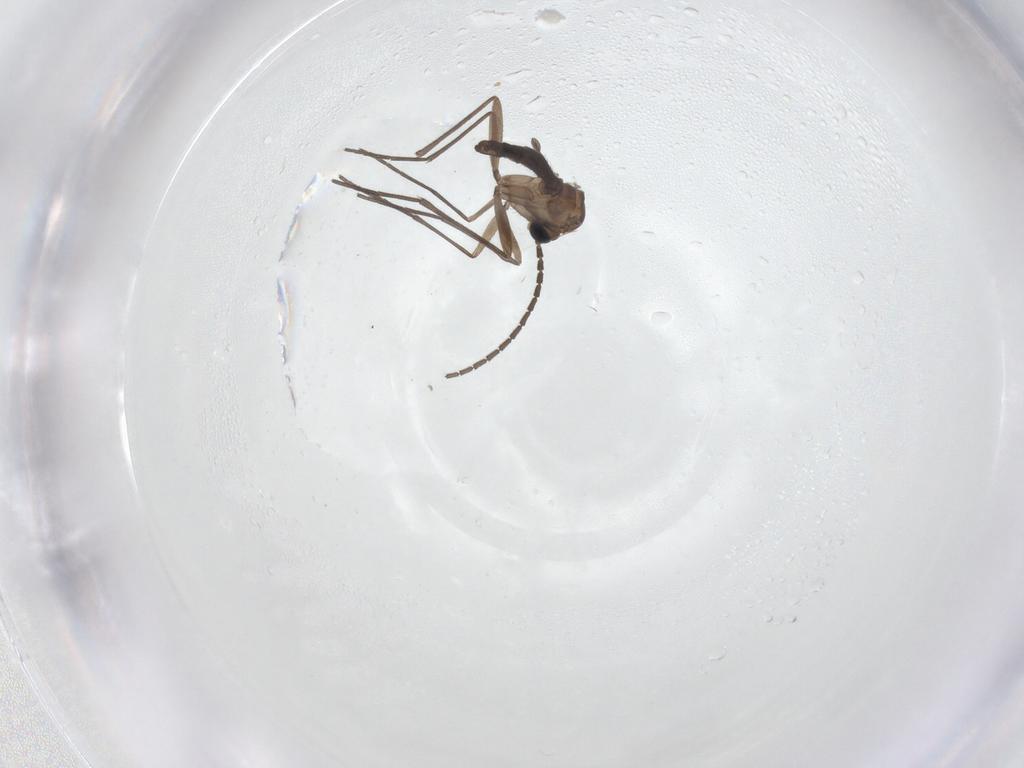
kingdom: Animalia
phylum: Arthropoda
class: Insecta
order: Diptera
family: Sciaridae
